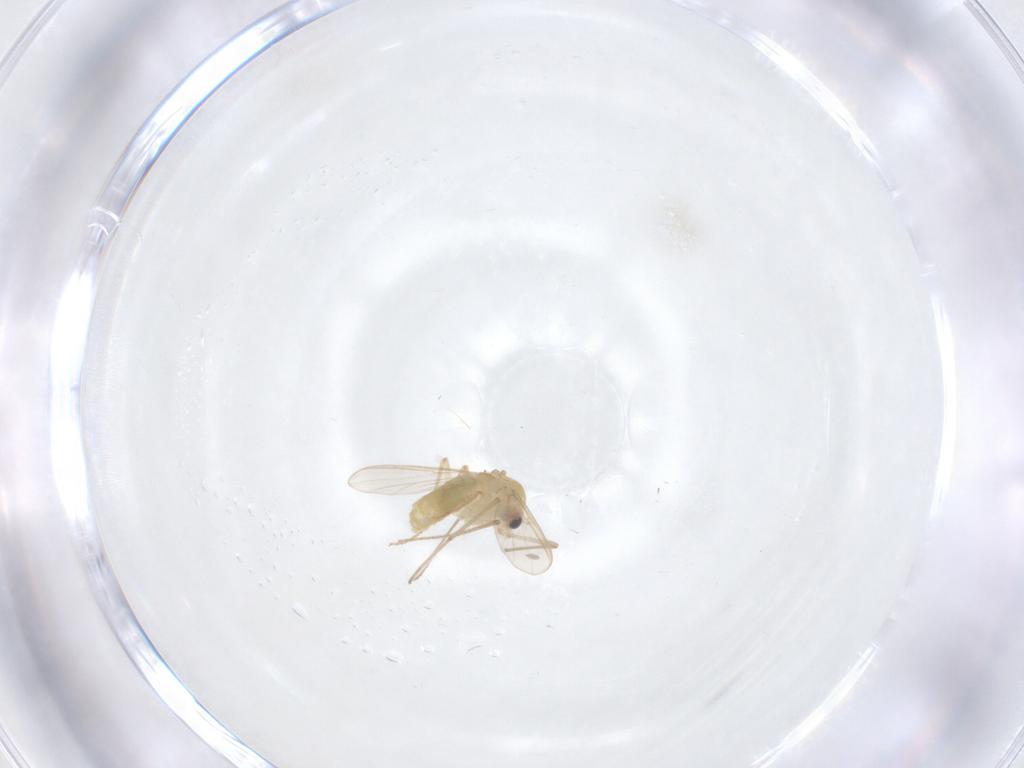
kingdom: Animalia
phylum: Arthropoda
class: Insecta
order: Diptera
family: Cecidomyiidae
